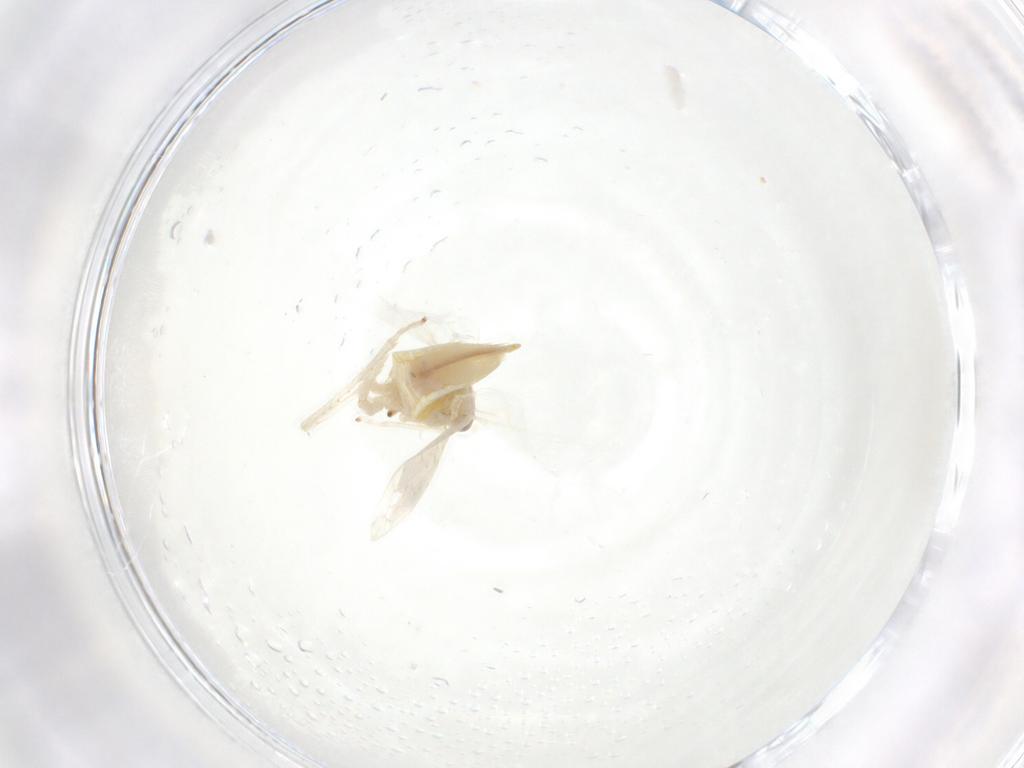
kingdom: Animalia
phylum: Arthropoda
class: Insecta
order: Hemiptera
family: Cicadellidae
